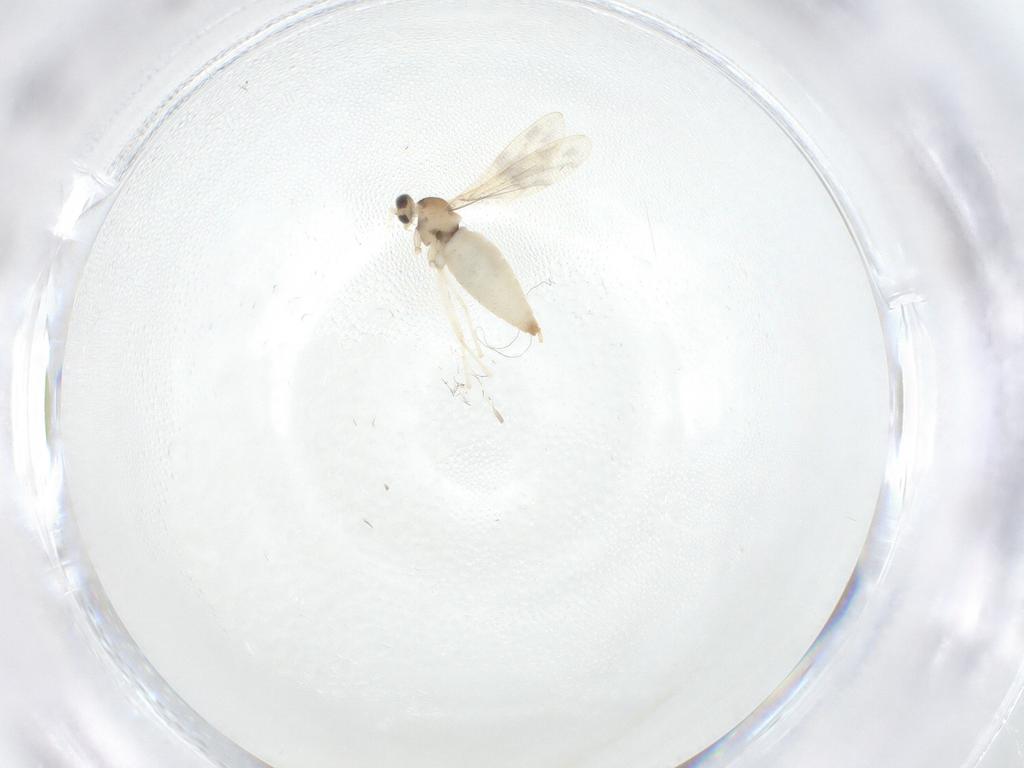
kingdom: Animalia
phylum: Arthropoda
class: Insecta
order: Diptera
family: Cecidomyiidae
